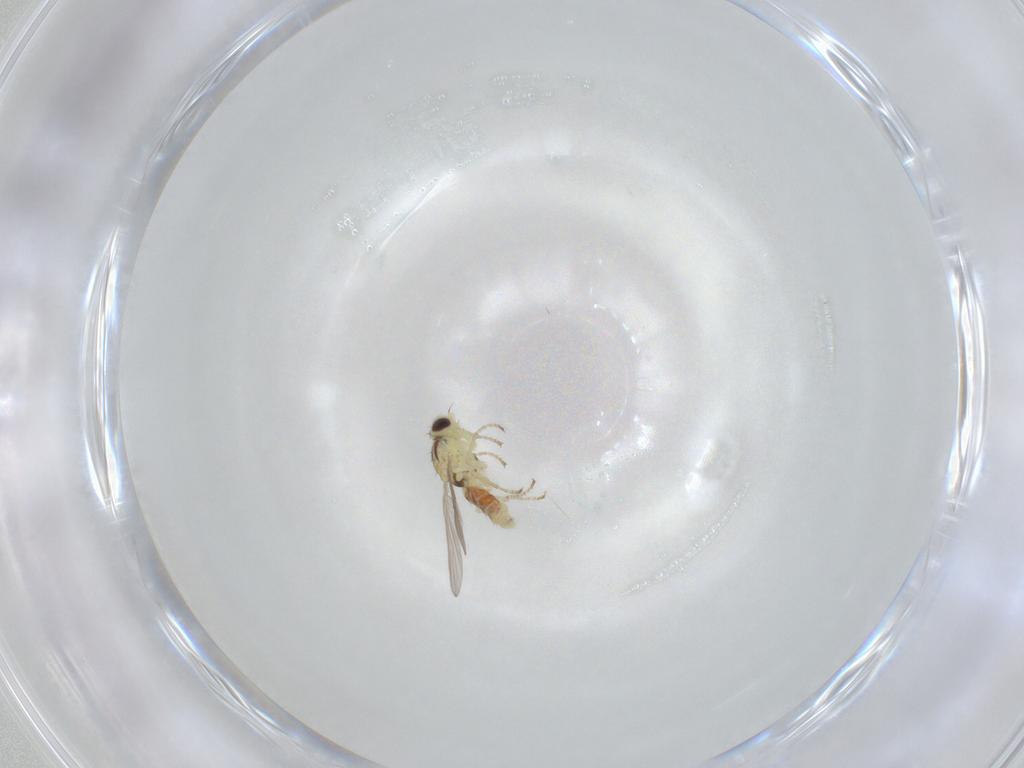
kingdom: Animalia
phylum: Arthropoda
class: Insecta
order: Diptera
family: Agromyzidae
